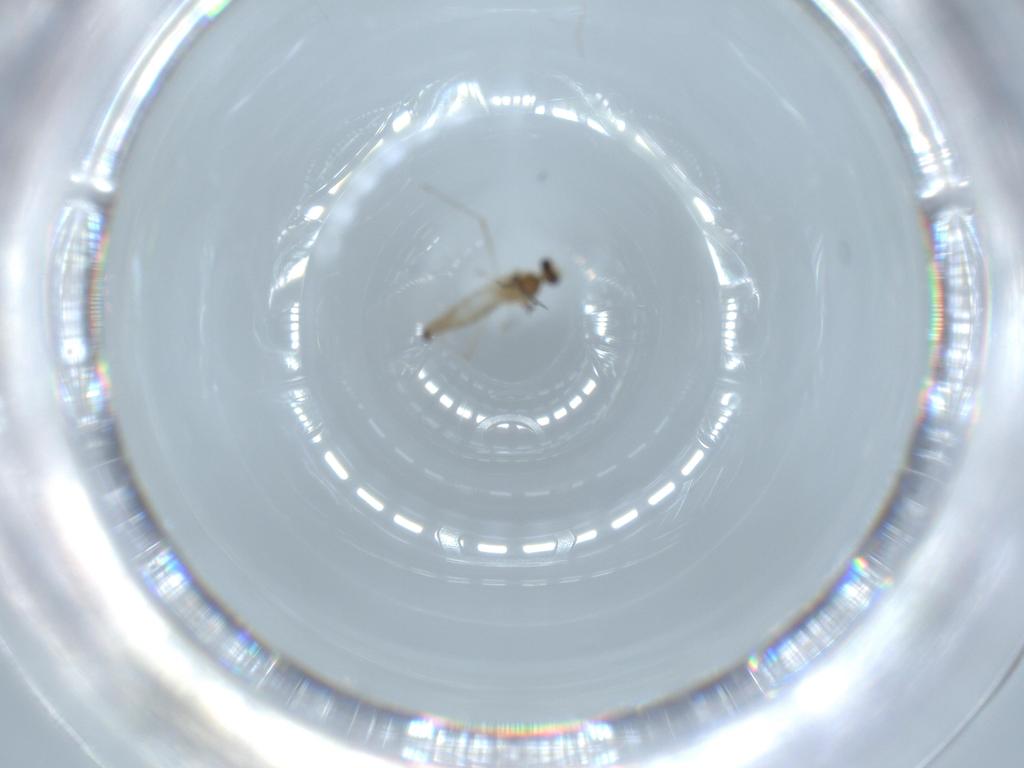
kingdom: Animalia
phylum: Arthropoda
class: Insecta
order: Diptera
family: Cecidomyiidae
